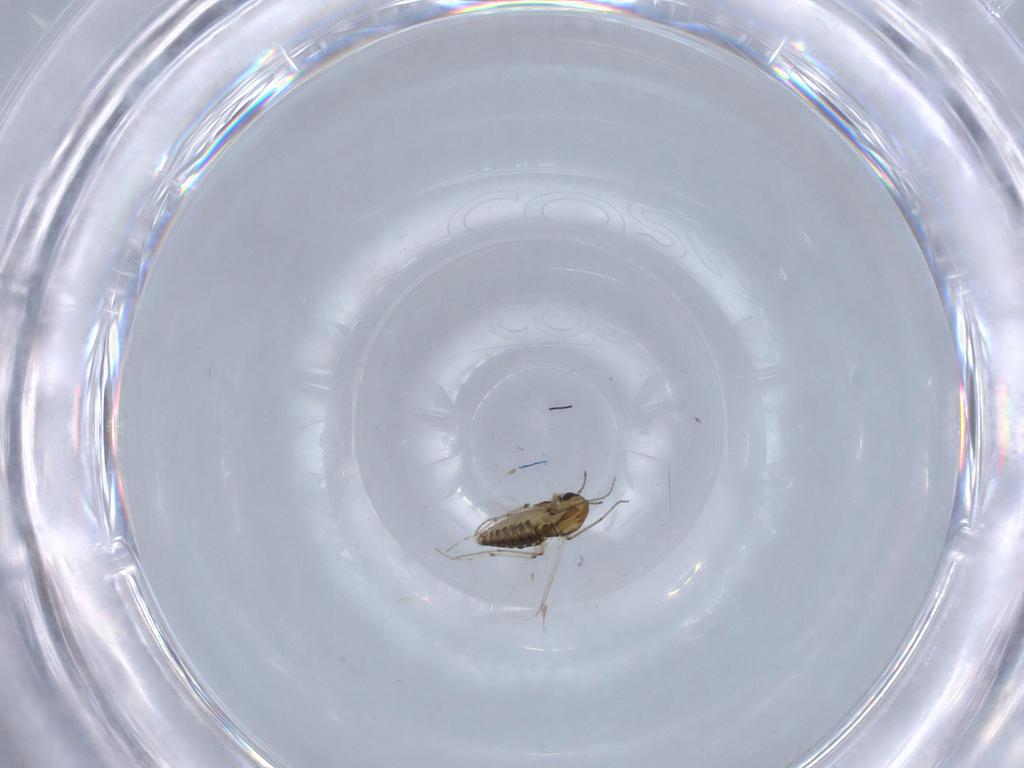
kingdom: Animalia
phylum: Arthropoda
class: Insecta
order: Diptera
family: Chironomidae
